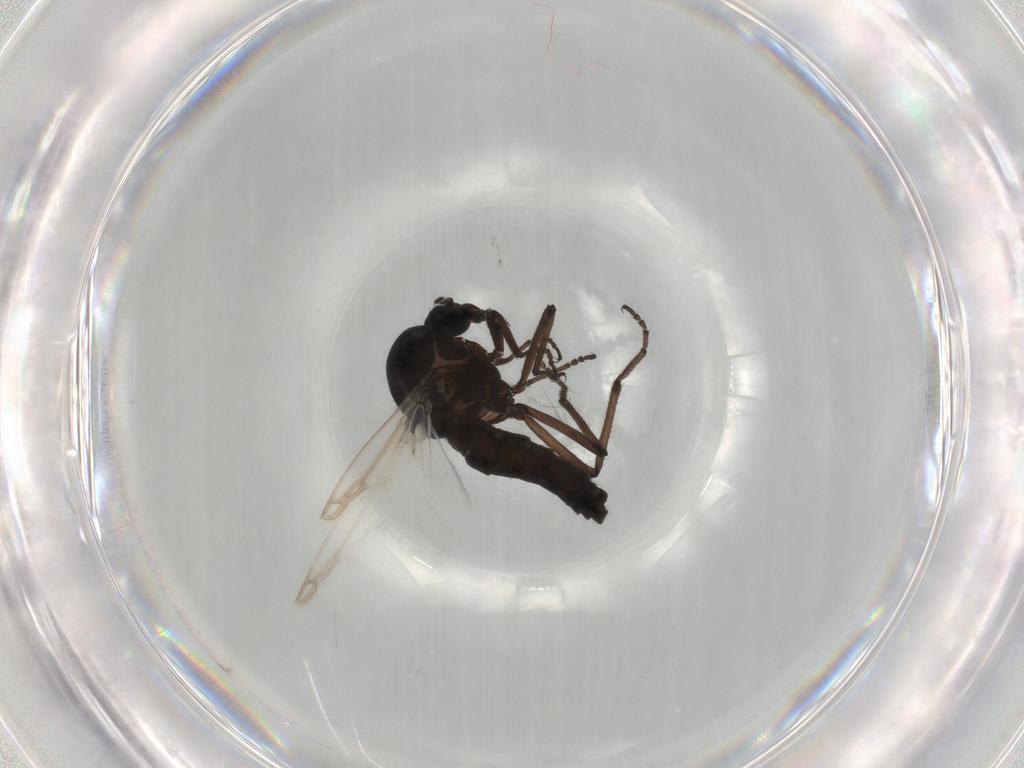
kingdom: Animalia
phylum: Arthropoda
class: Insecta
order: Diptera
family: Ceratopogonidae
